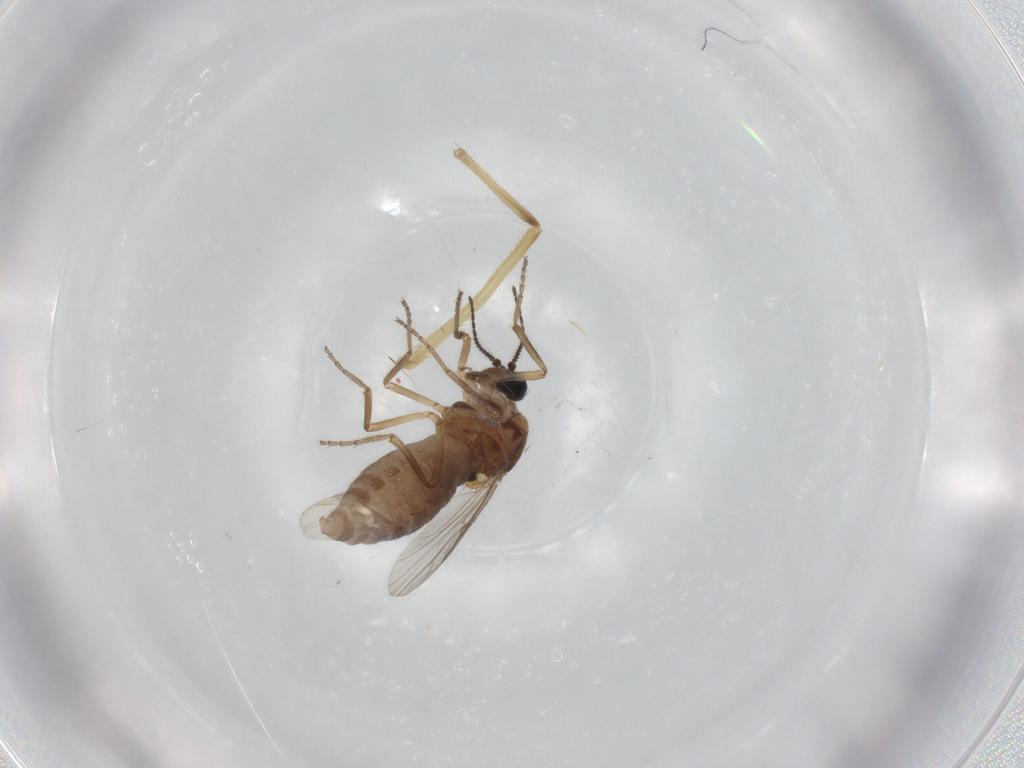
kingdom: Animalia
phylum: Arthropoda
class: Insecta
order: Diptera
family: Ceratopogonidae
